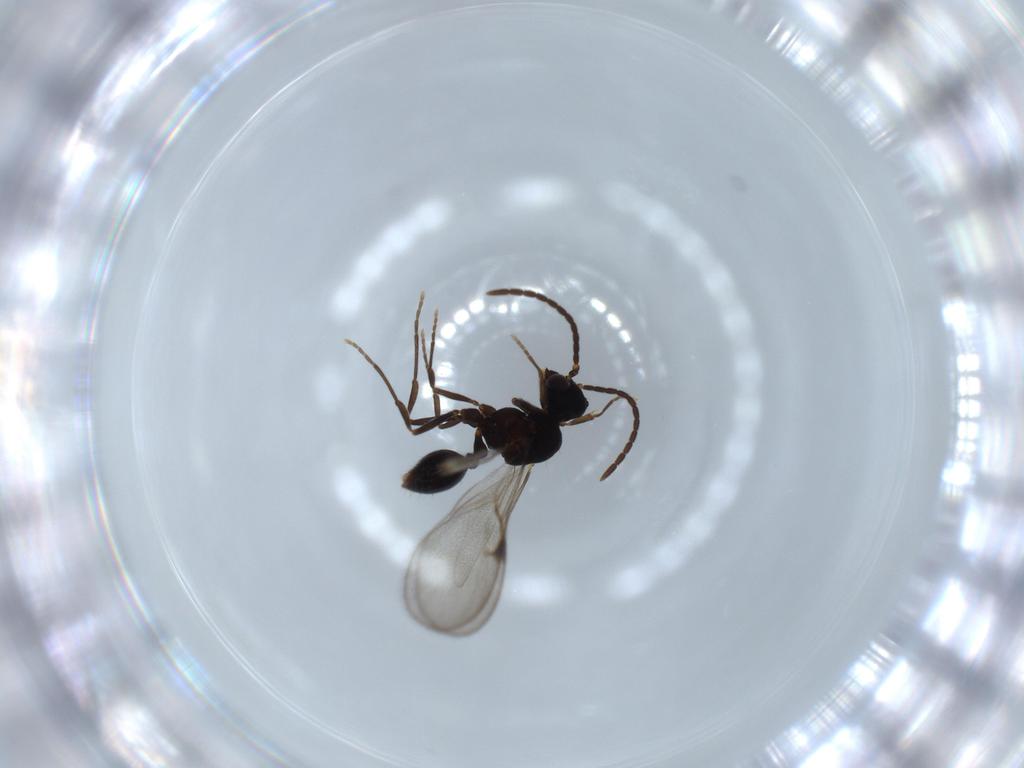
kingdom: Animalia
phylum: Arthropoda
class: Insecta
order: Hymenoptera
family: Formicidae
